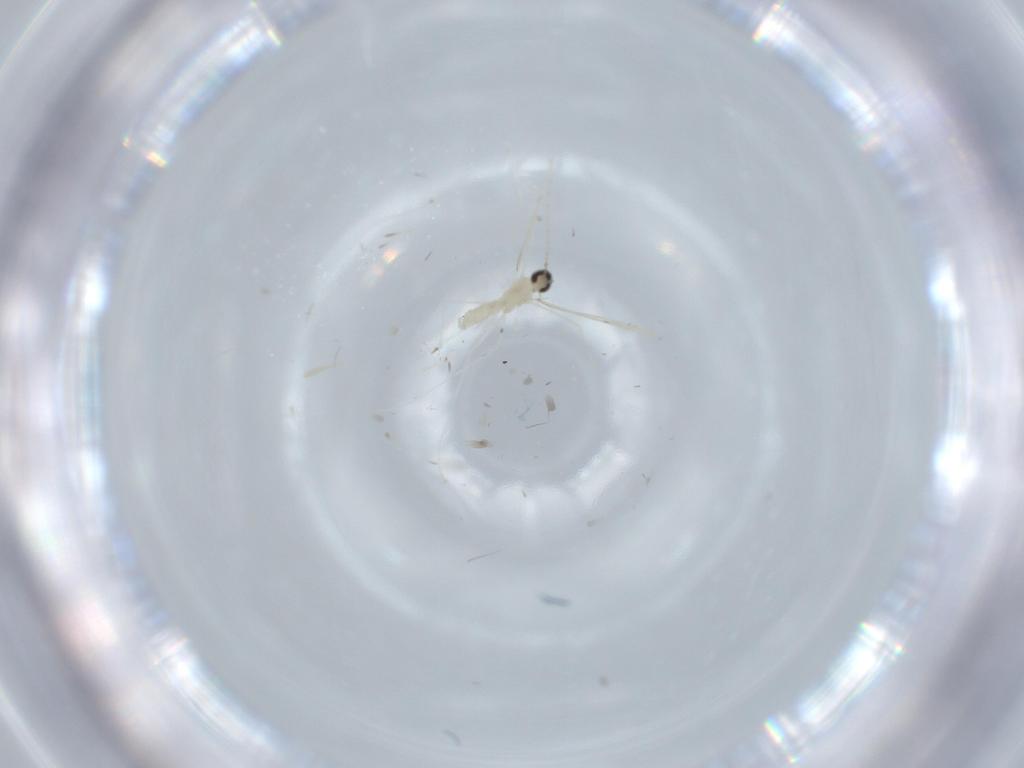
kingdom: Animalia
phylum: Arthropoda
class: Insecta
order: Diptera
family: Cecidomyiidae
